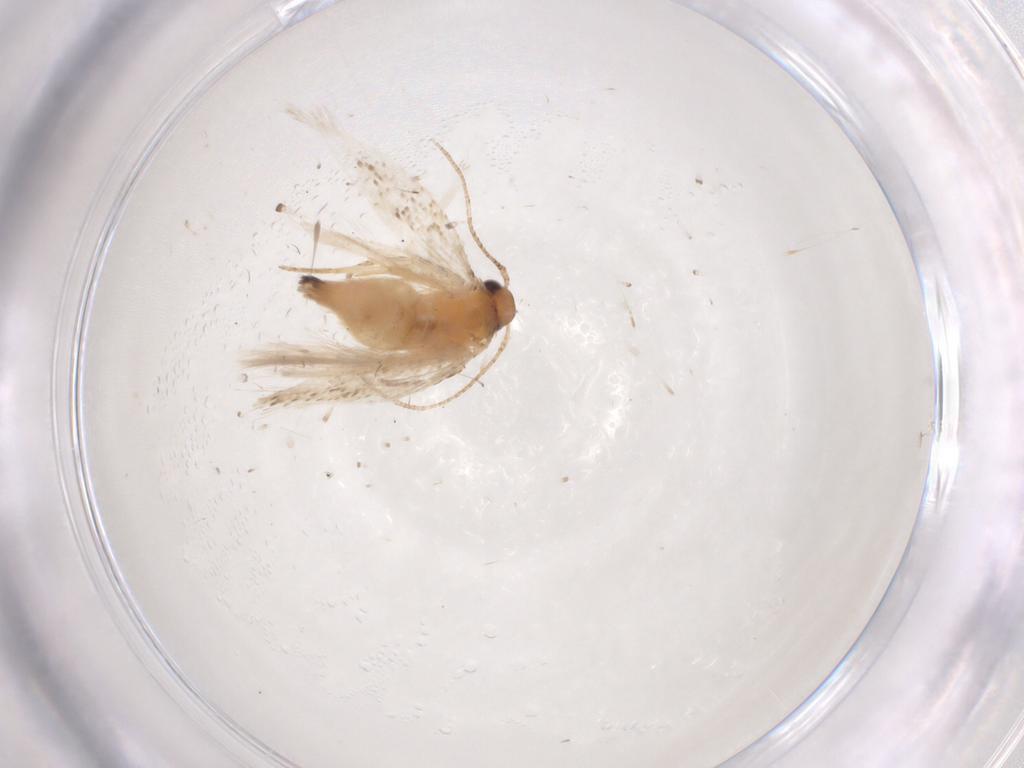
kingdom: Animalia
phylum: Arthropoda
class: Insecta
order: Lepidoptera
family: Gelechiidae
